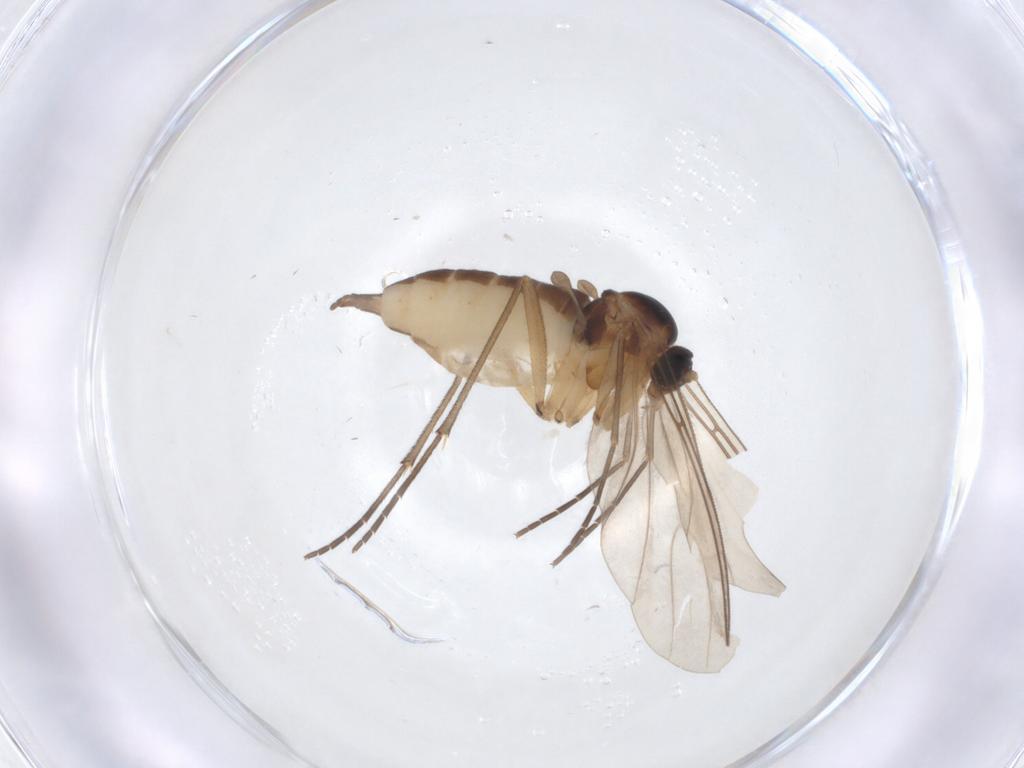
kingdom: Animalia
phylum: Arthropoda
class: Insecta
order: Diptera
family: Sciaridae
